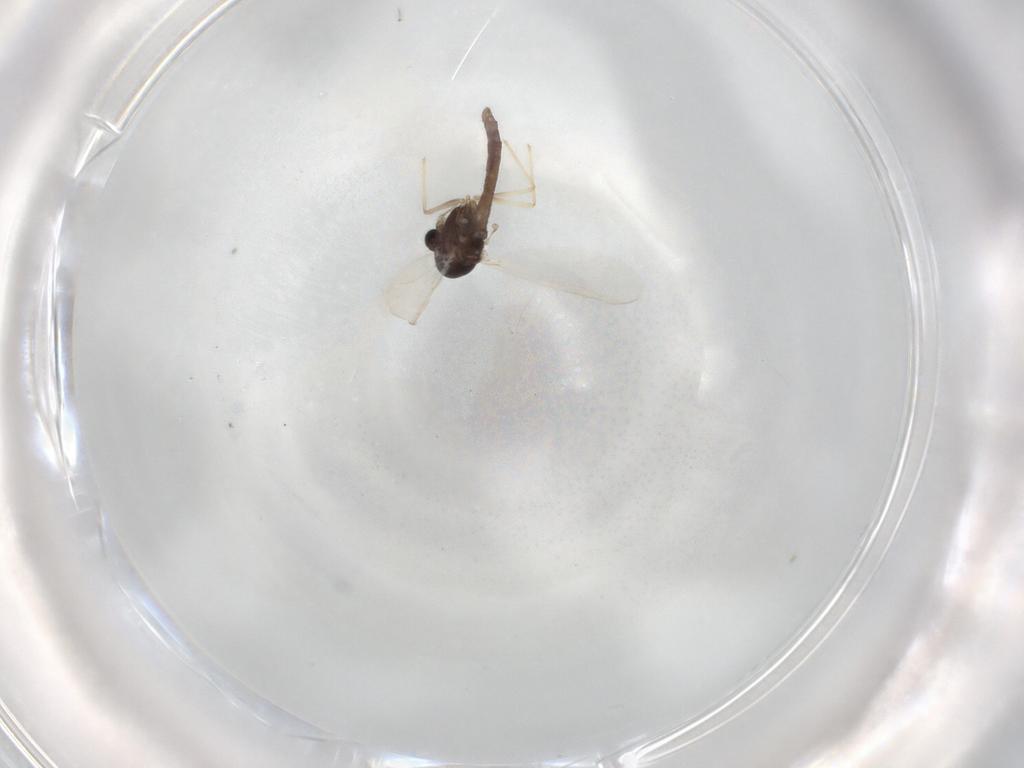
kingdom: Animalia
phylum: Arthropoda
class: Insecta
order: Diptera
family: Chironomidae
